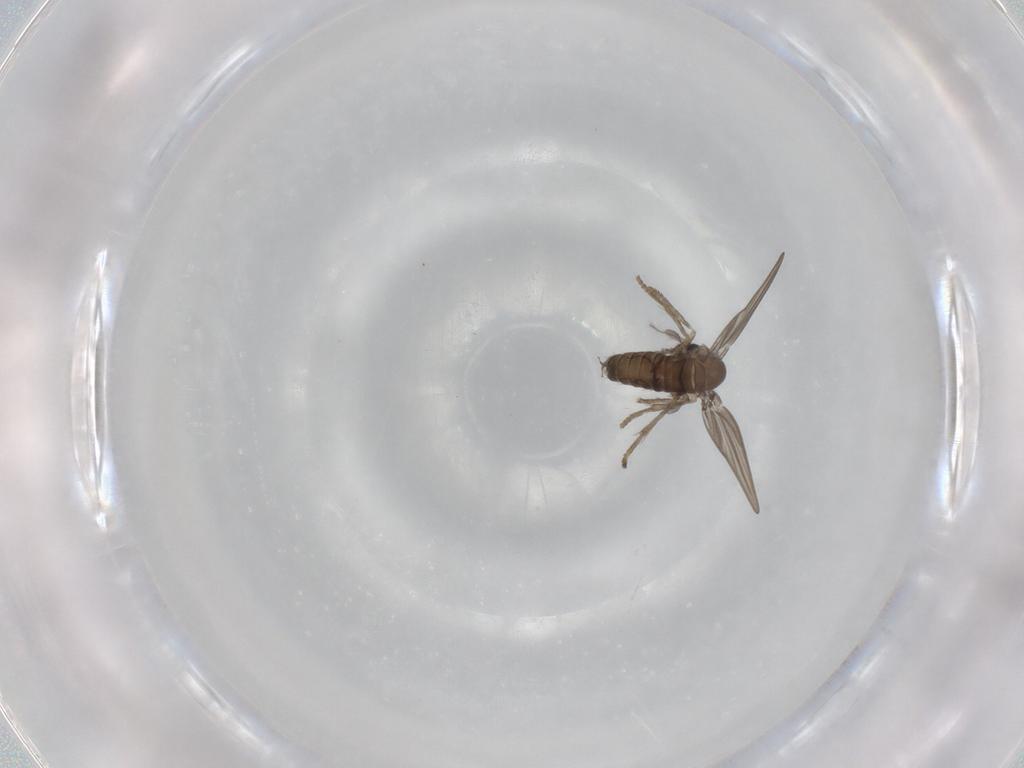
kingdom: Animalia
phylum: Arthropoda
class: Insecta
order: Diptera
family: Psychodidae
